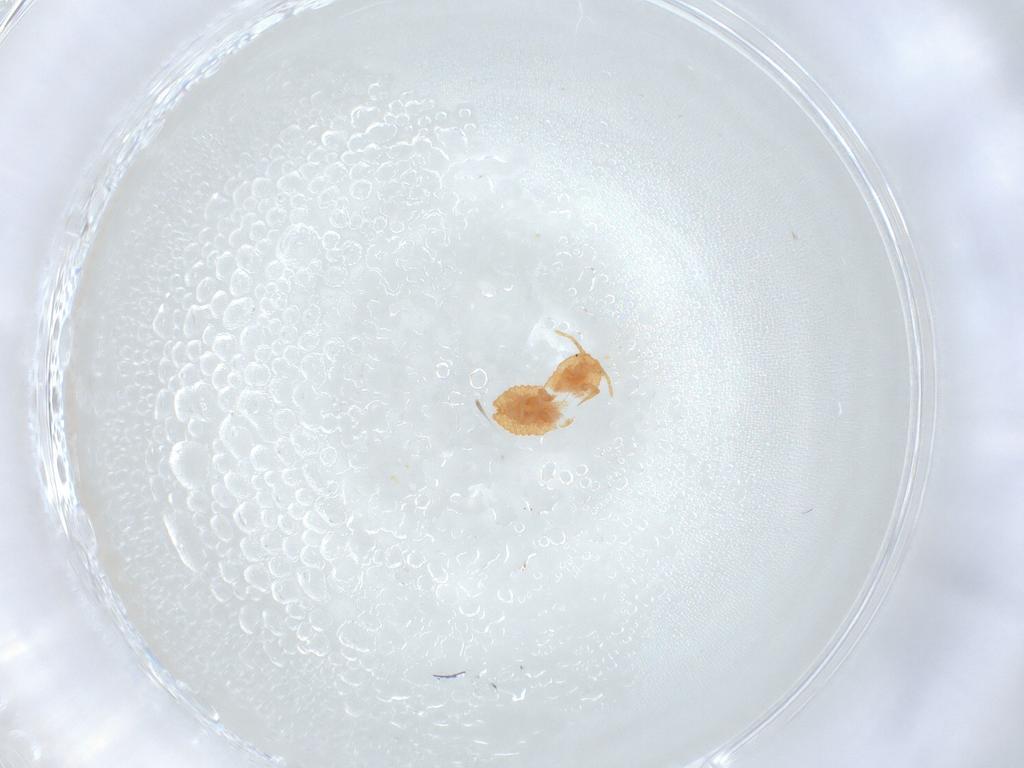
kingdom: Animalia
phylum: Arthropoda
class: Insecta
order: Hemiptera
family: Pseudococcidae
